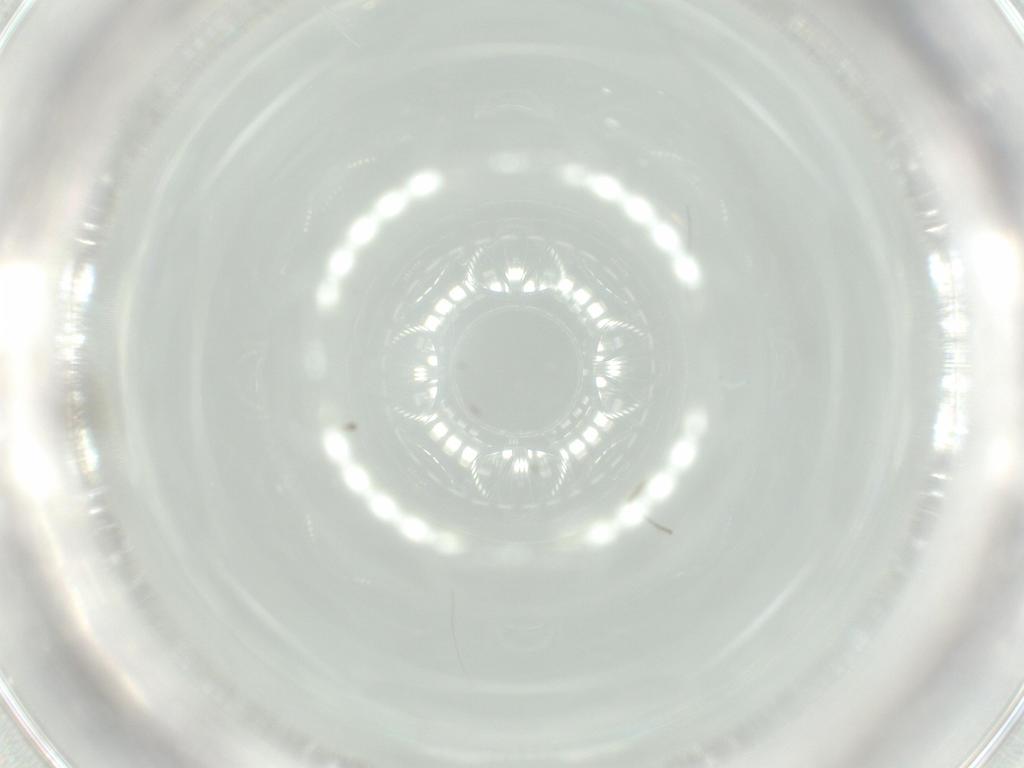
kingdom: Animalia
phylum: Arthropoda
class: Insecta
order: Diptera
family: Cecidomyiidae
